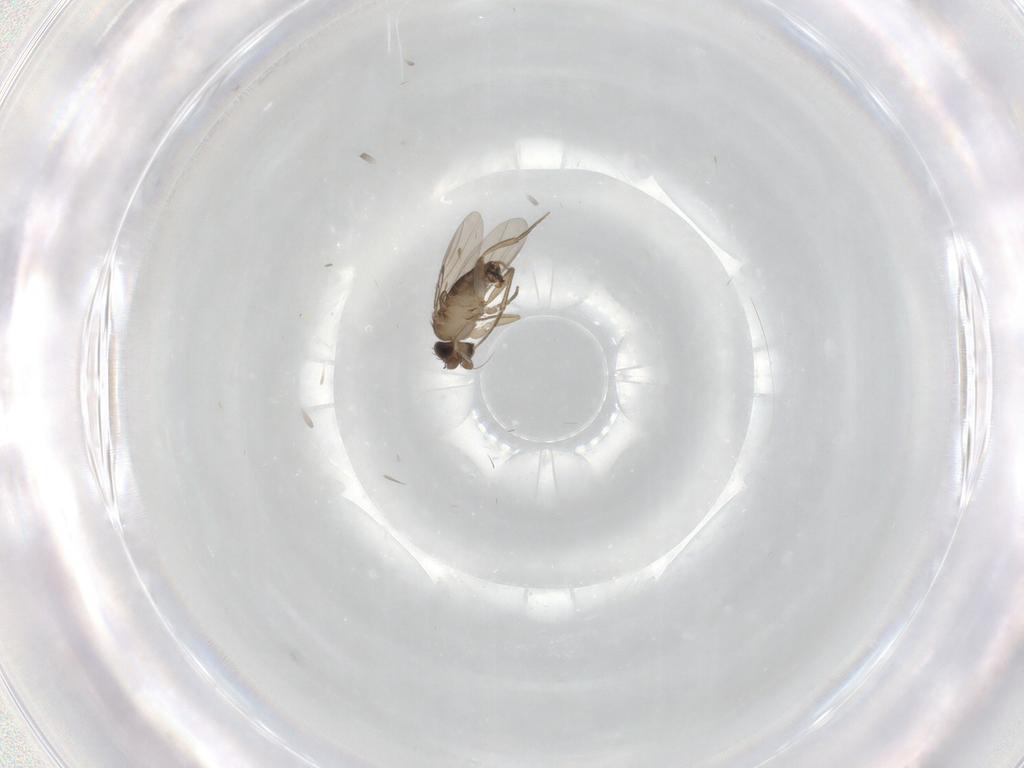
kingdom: Animalia
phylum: Arthropoda
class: Insecta
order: Diptera
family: Phoridae
